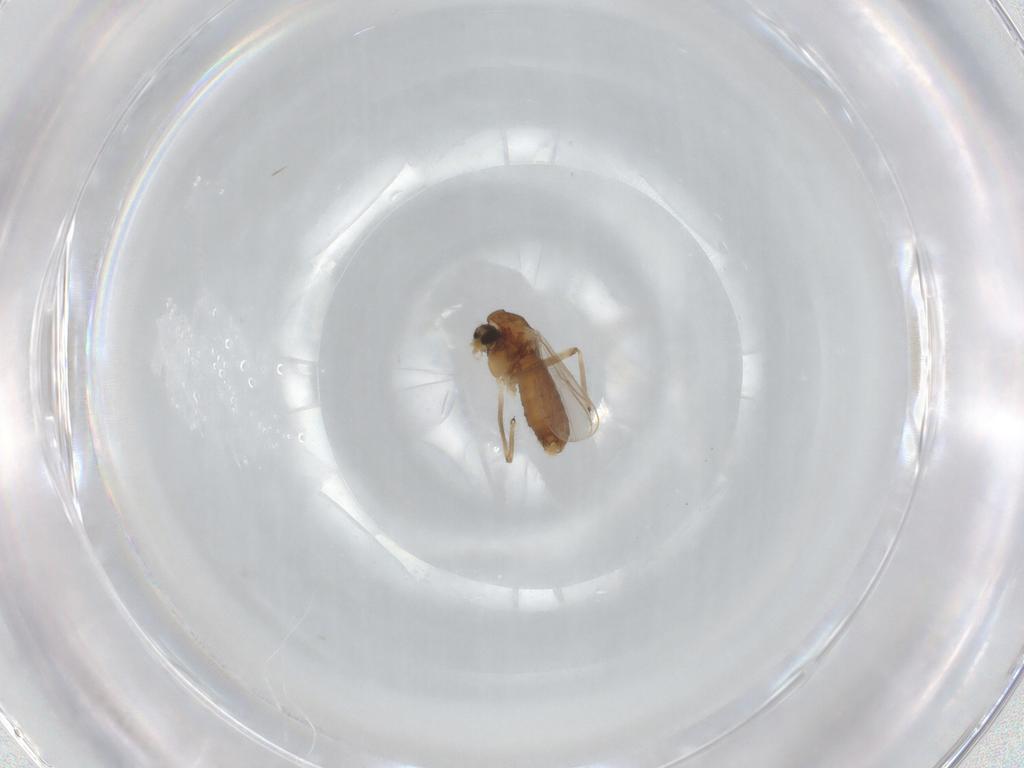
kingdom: Animalia
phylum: Arthropoda
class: Insecta
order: Diptera
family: Chironomidae
